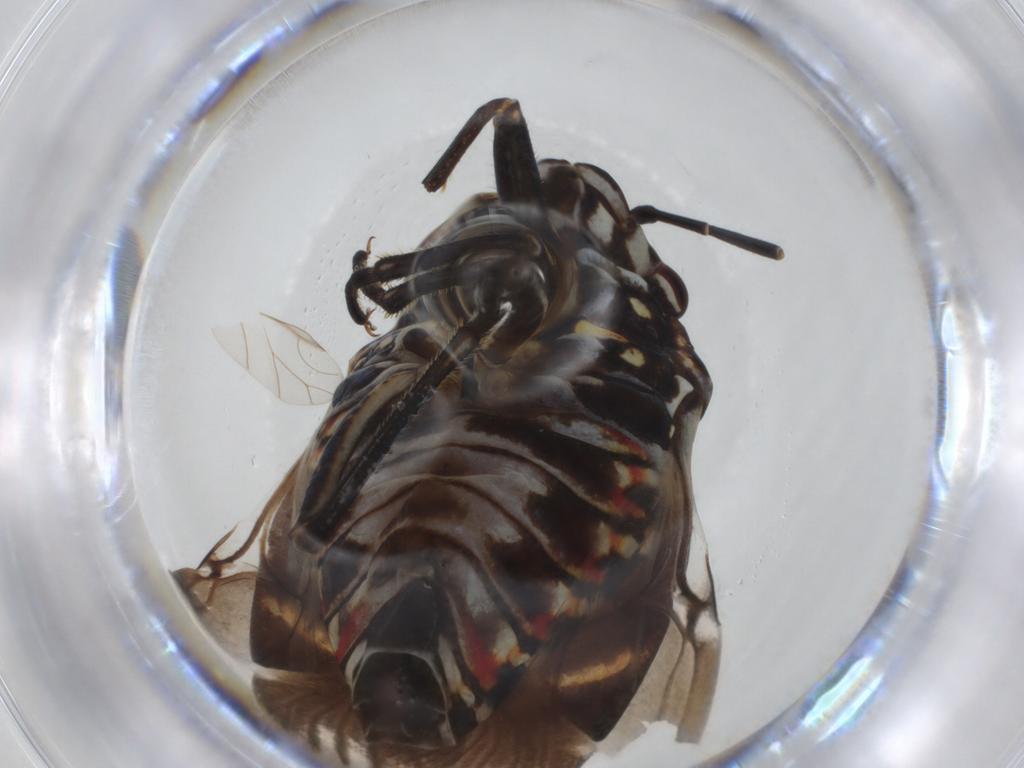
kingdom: Animalia
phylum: Arthropoda
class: Insecta
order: Hemiptera
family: Pentatomidae
